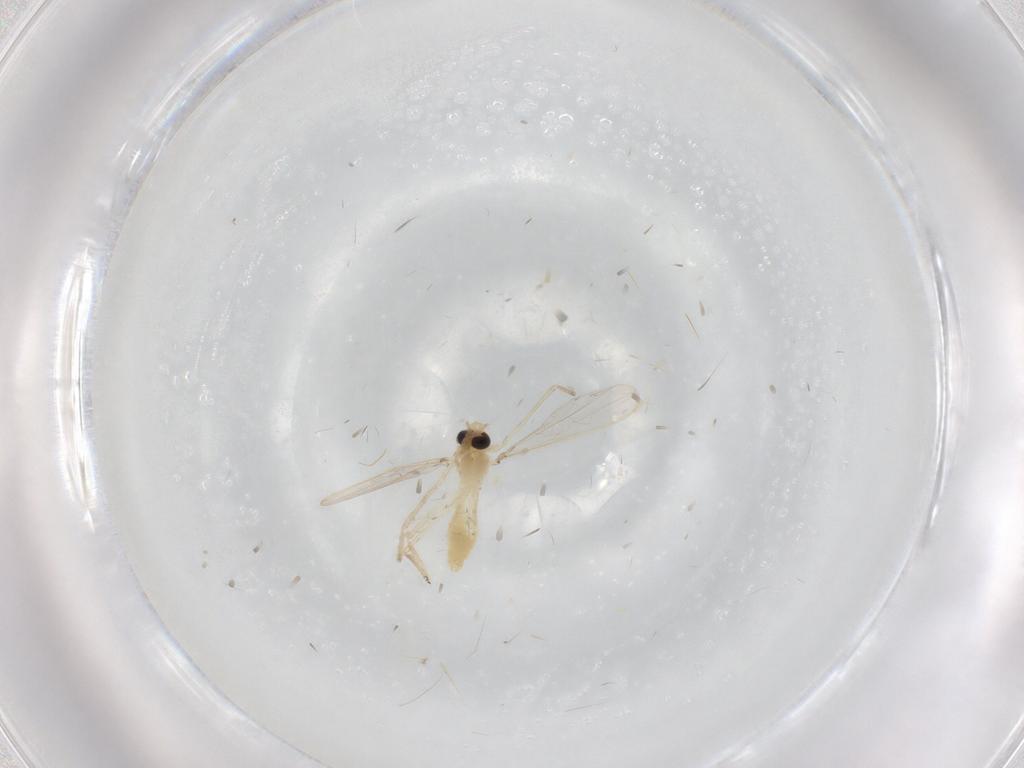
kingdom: Animalia
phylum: Arthropoda
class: Insecta
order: Diptera
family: Chironomidae
